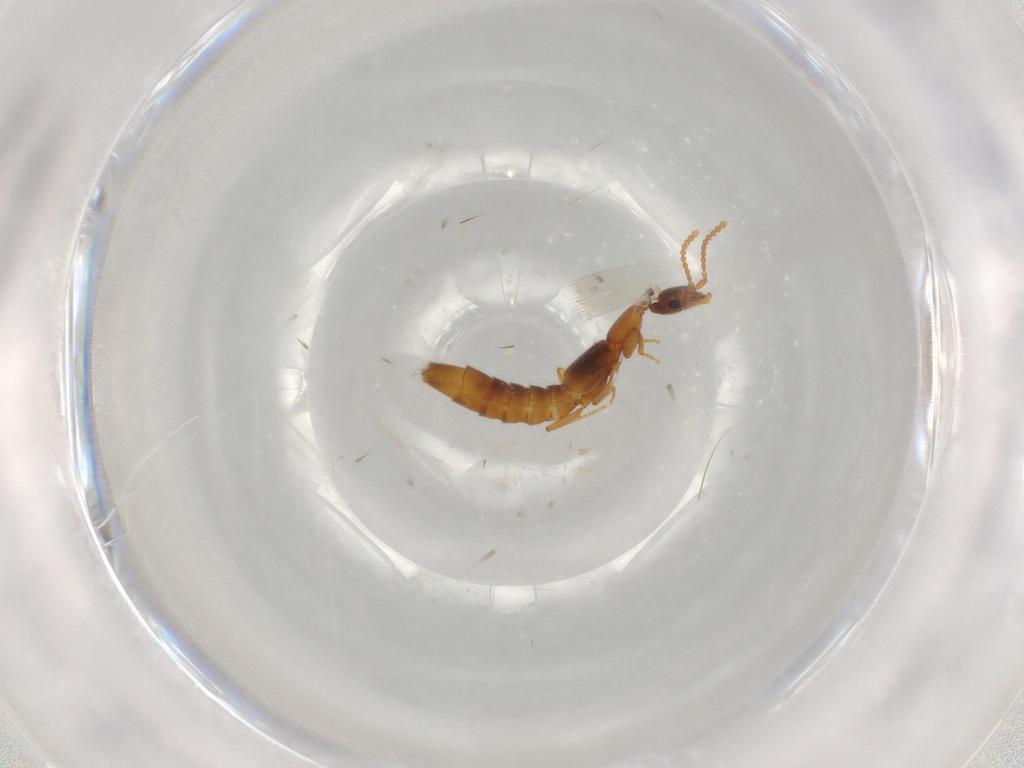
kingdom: Animalia
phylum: Arthropoda
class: Insecta
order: Coleoptera
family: Staphylinidae
